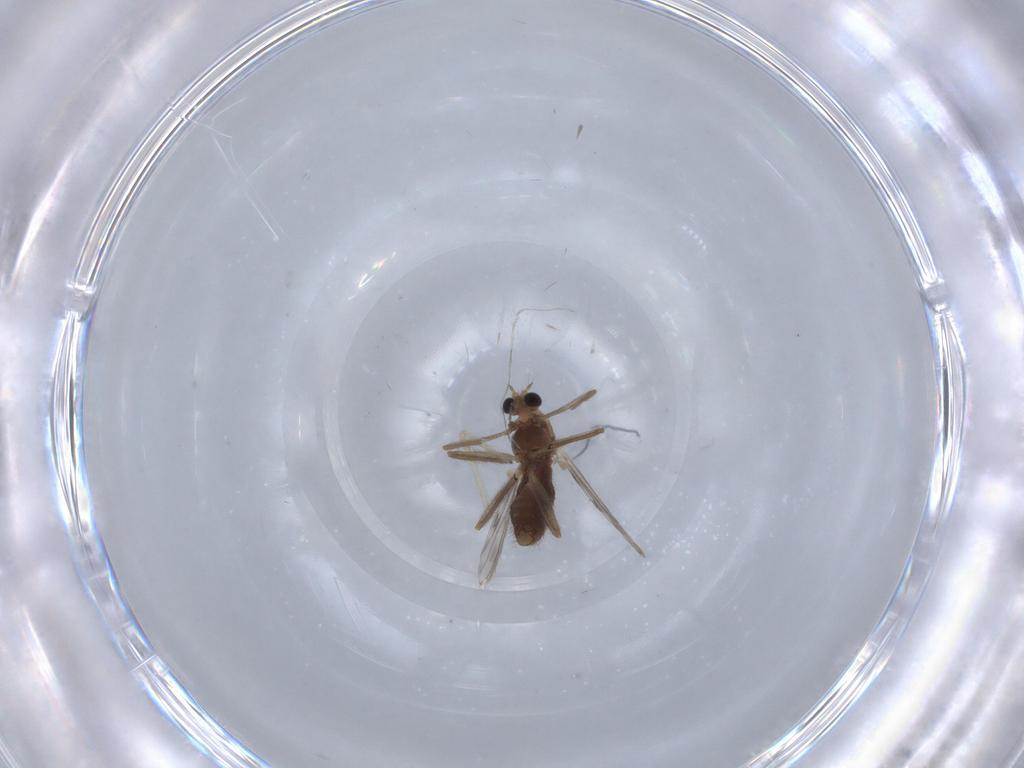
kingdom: Animalia
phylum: Arthropoda
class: Insecta
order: Diptera
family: Chironomidae
